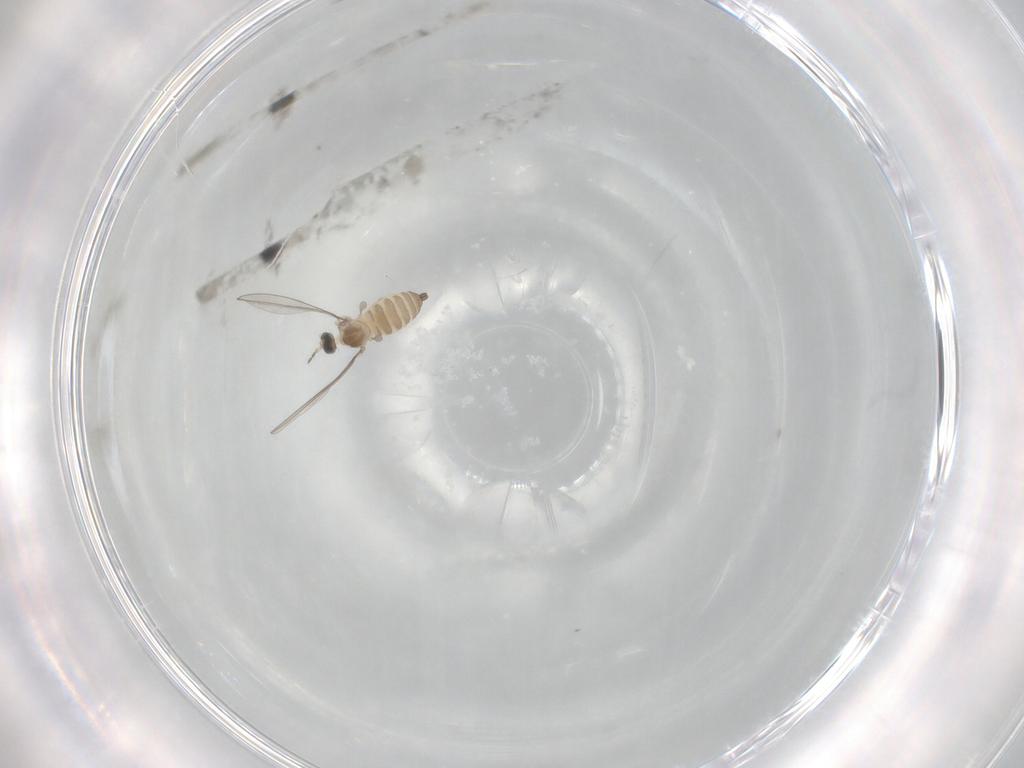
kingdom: Animalia
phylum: Arthropoda
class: Insecta
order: Diptera
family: Cecidomyiidae
